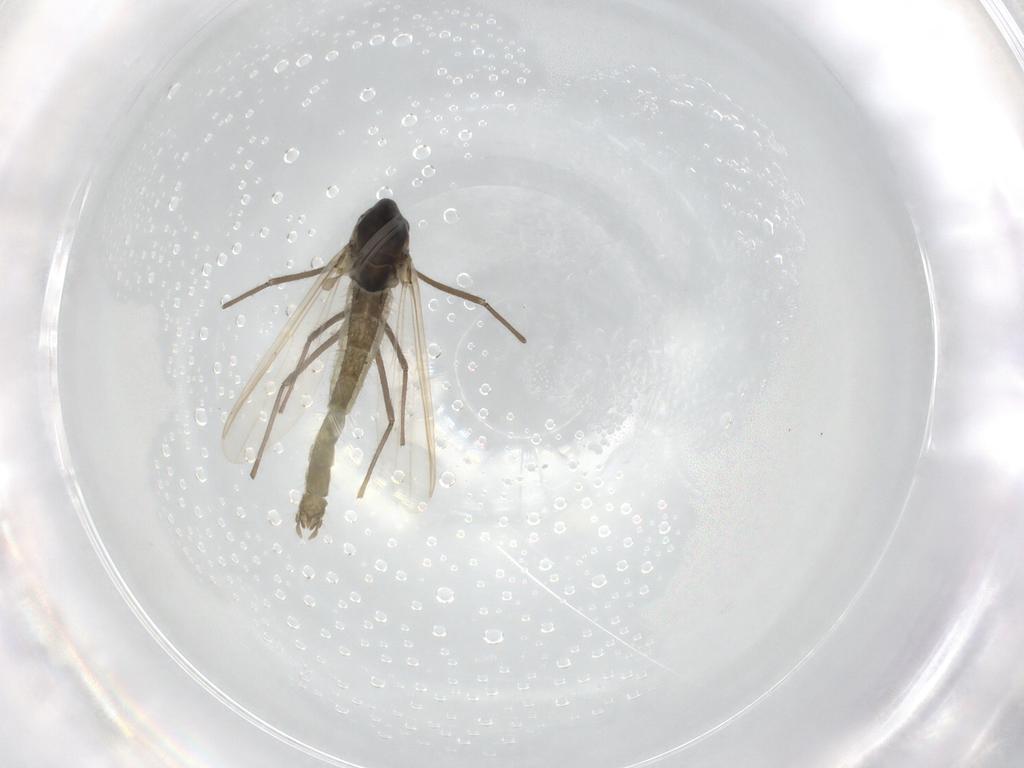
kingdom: Animalia
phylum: Arthropoda
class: Insecta
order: Diptera
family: Chironomidae
